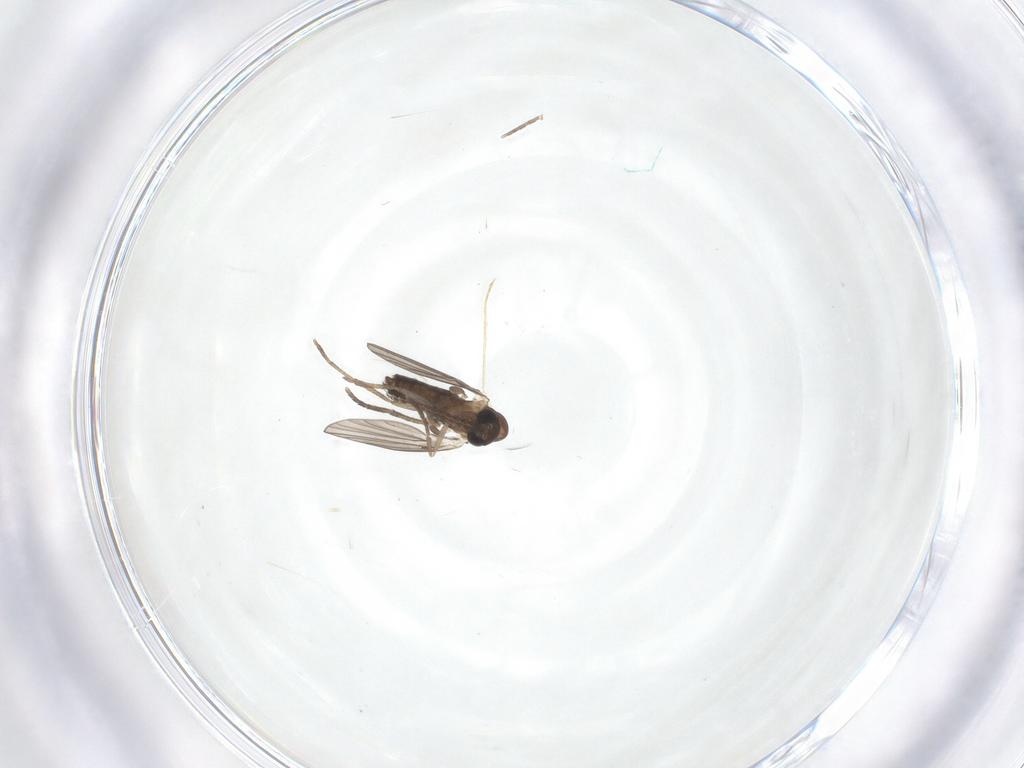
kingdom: Animalia
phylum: Arthropoda
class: Insecta
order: Diptera
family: Psychodidae
